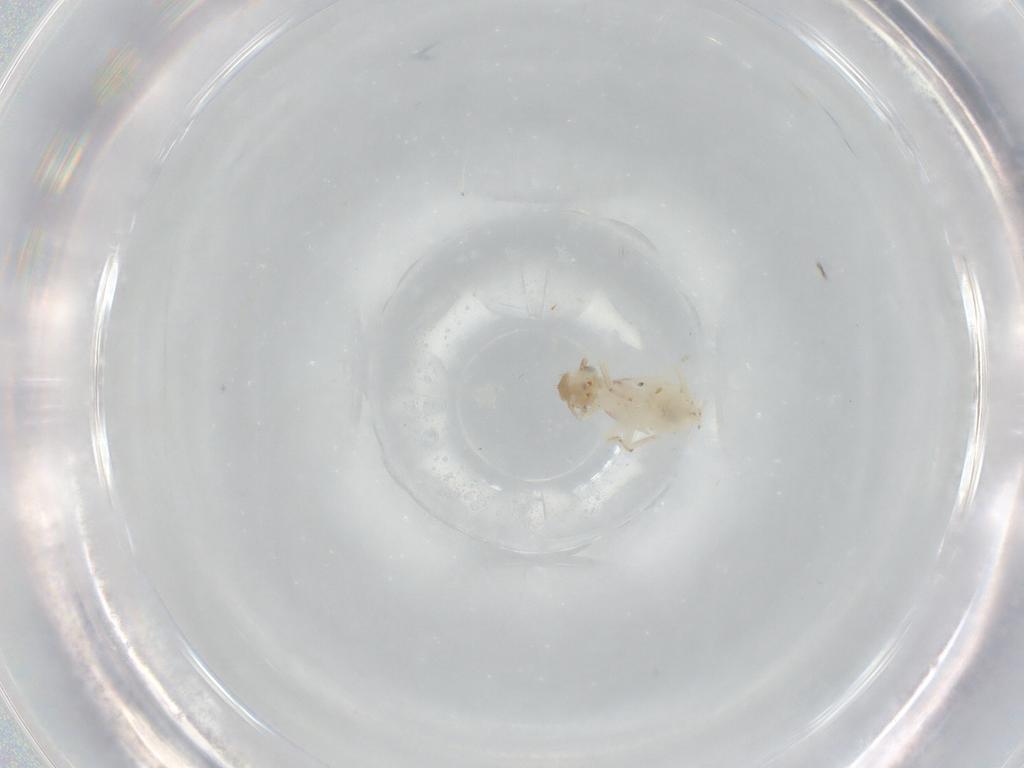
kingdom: Animalia
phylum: Arthropoda
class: Insecta
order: Psocodea
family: Lepidopsocidae
